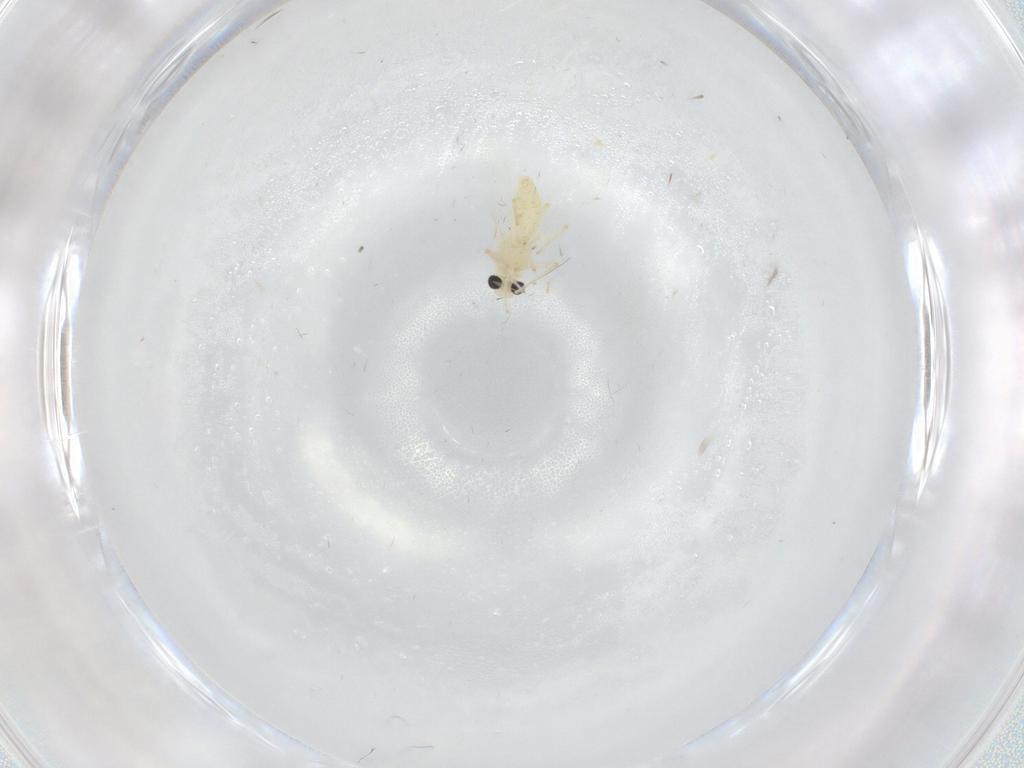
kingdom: Animalia
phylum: Arthropoda
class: Insecta
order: Diptera
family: Chironomidae
